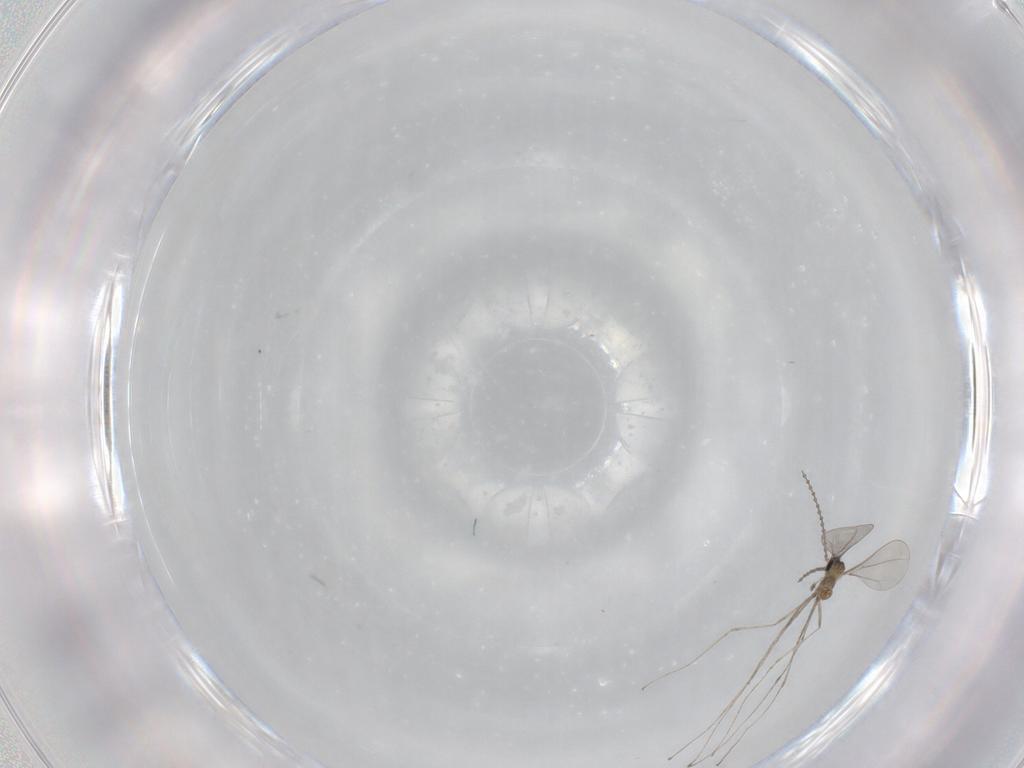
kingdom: Animalia
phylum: Arthropoda
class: Insecta
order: Diptera
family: Cecidomyiidae
